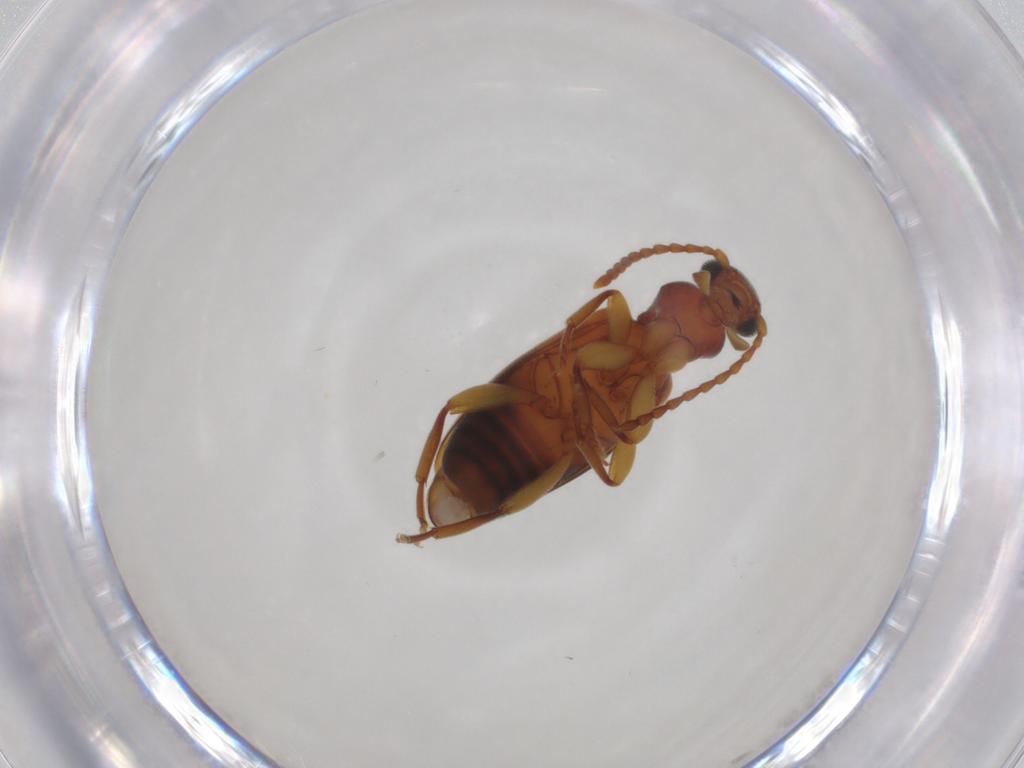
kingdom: Animalia
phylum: Arthropoda
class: Insecta
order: Coleoptera
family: Anthicidae
